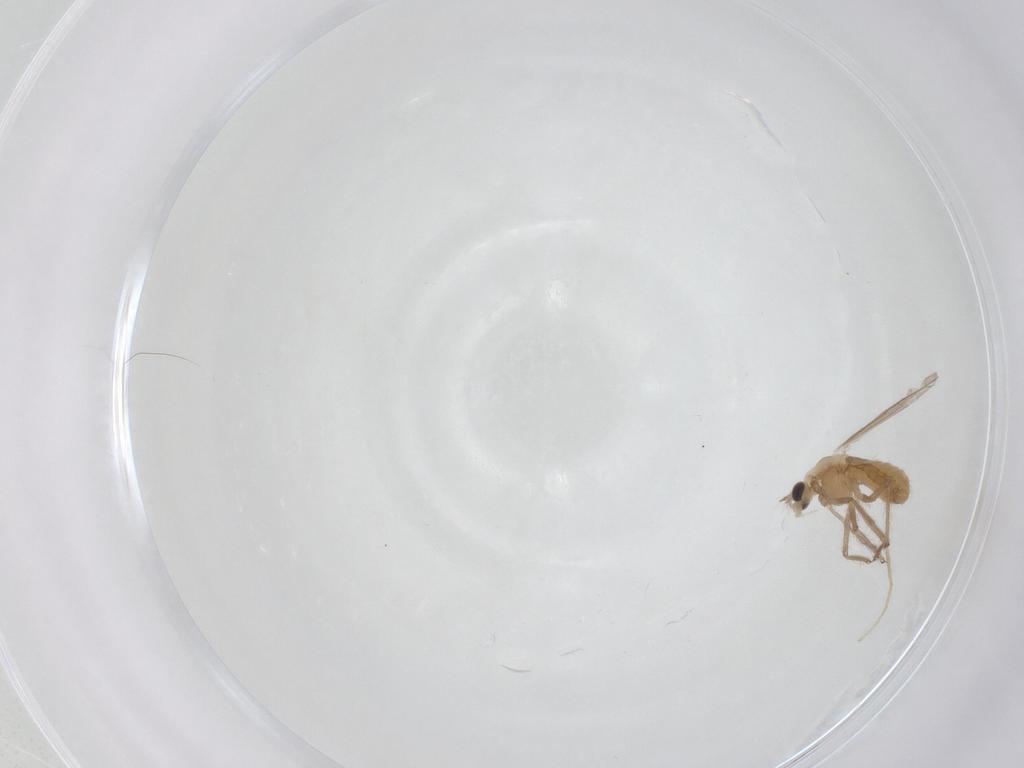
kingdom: Animalia
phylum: Arthropoda
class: Insecta
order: Diptera
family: Chironomidae
